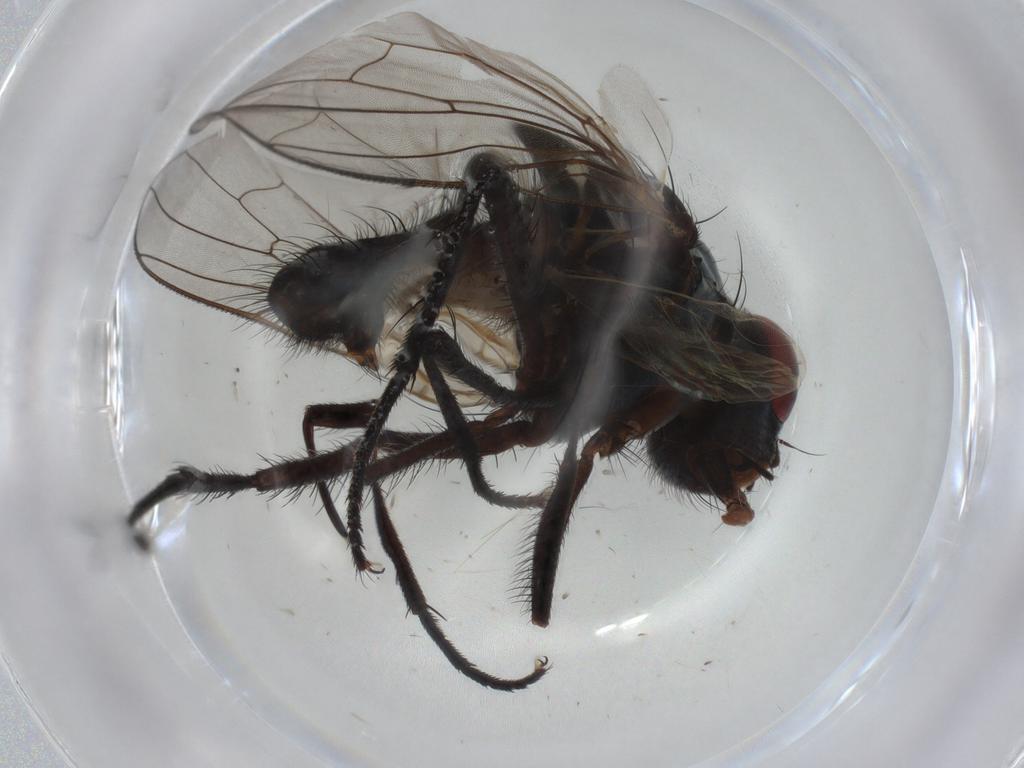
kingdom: Animalia
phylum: Arthropoda
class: Insecta
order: Diptera
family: Anthomyiidae
